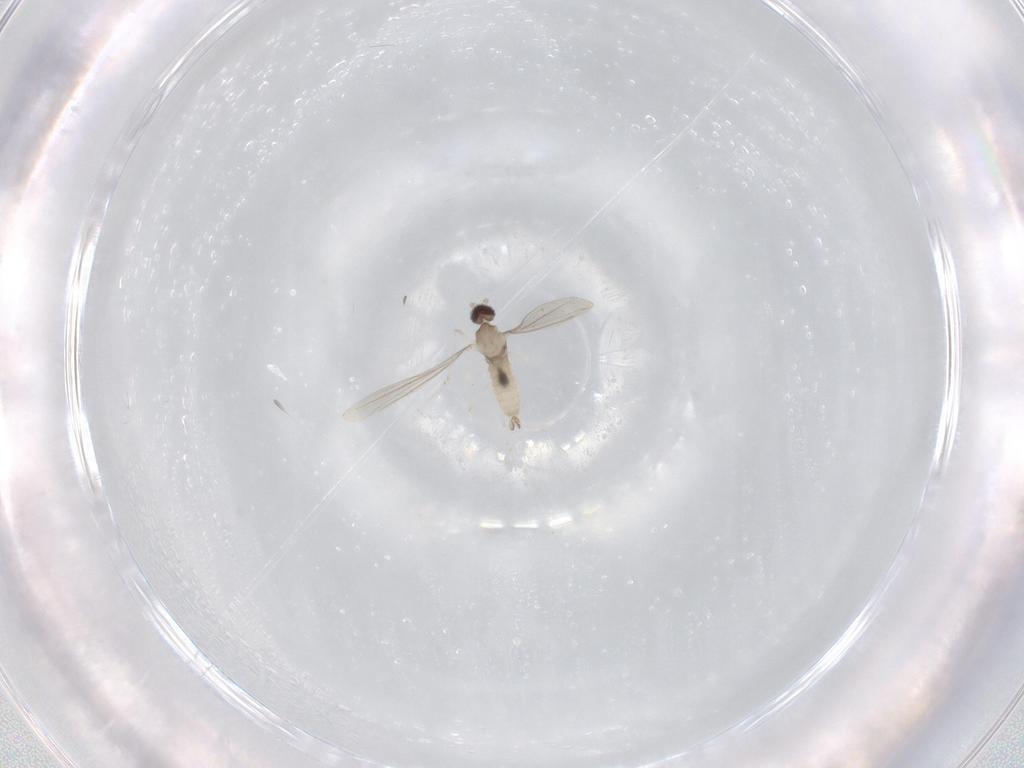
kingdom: Animalia
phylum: Arthropoda
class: Insecta
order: Diptera
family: Cecidomyiidae
